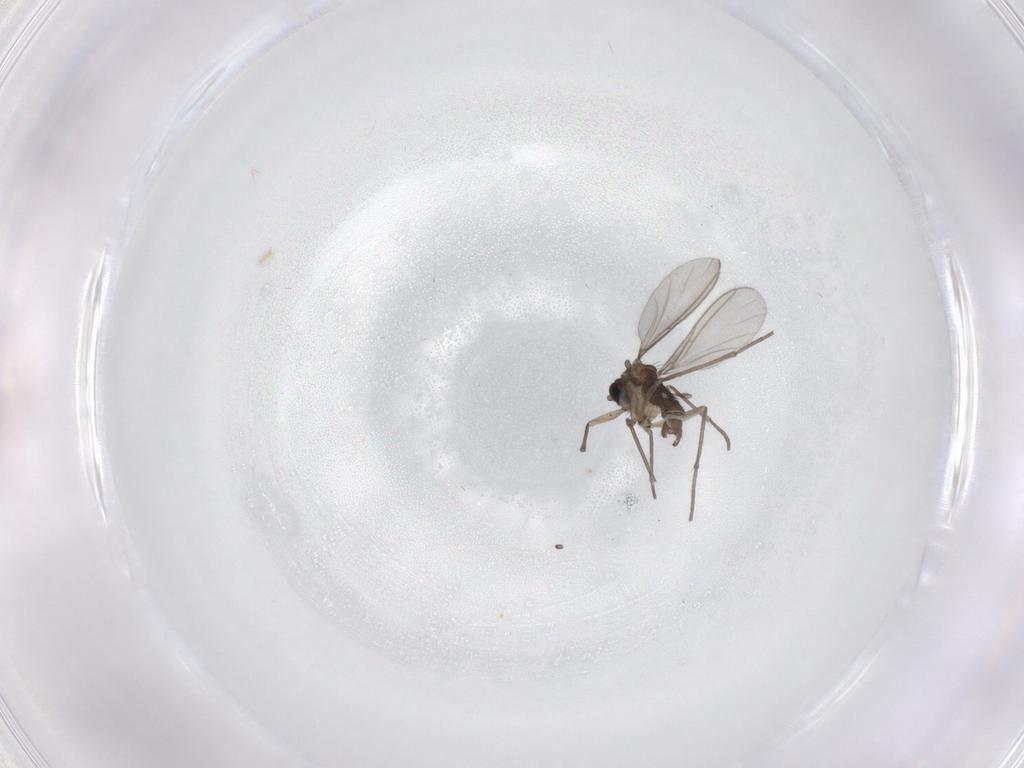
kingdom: Animalia
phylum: Arthropoda
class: Insecta
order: Diptera
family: Sciaridae
